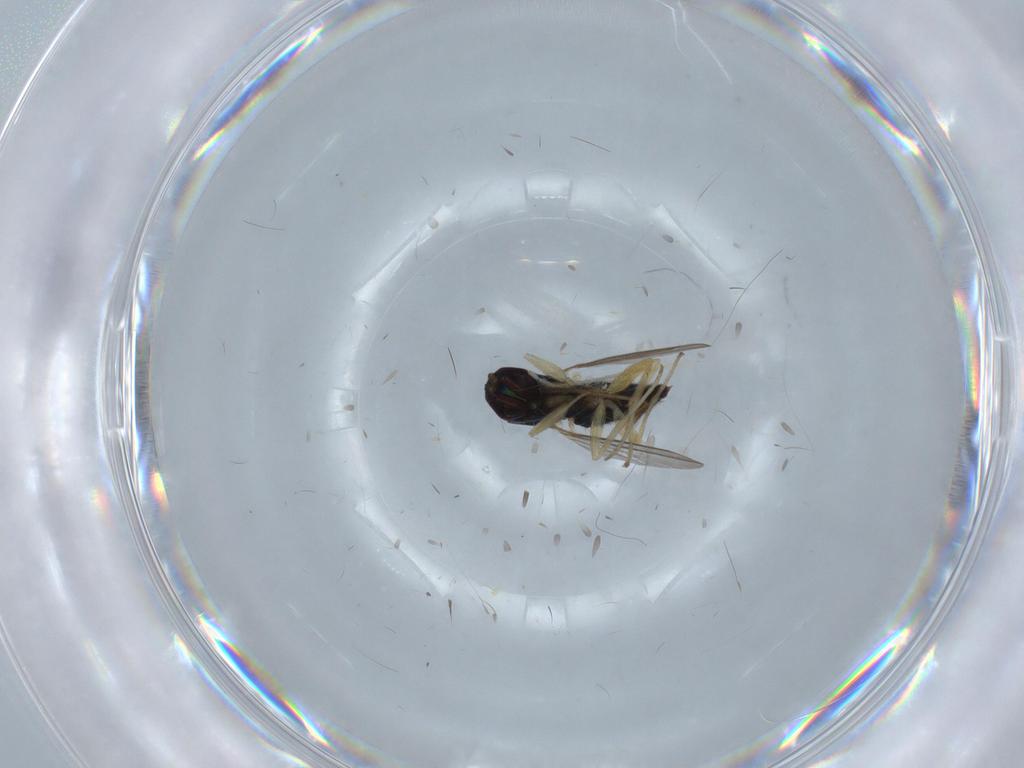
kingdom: Animalia
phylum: Arthropoda
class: Insecta
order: Diptera
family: Dolichopodidae
